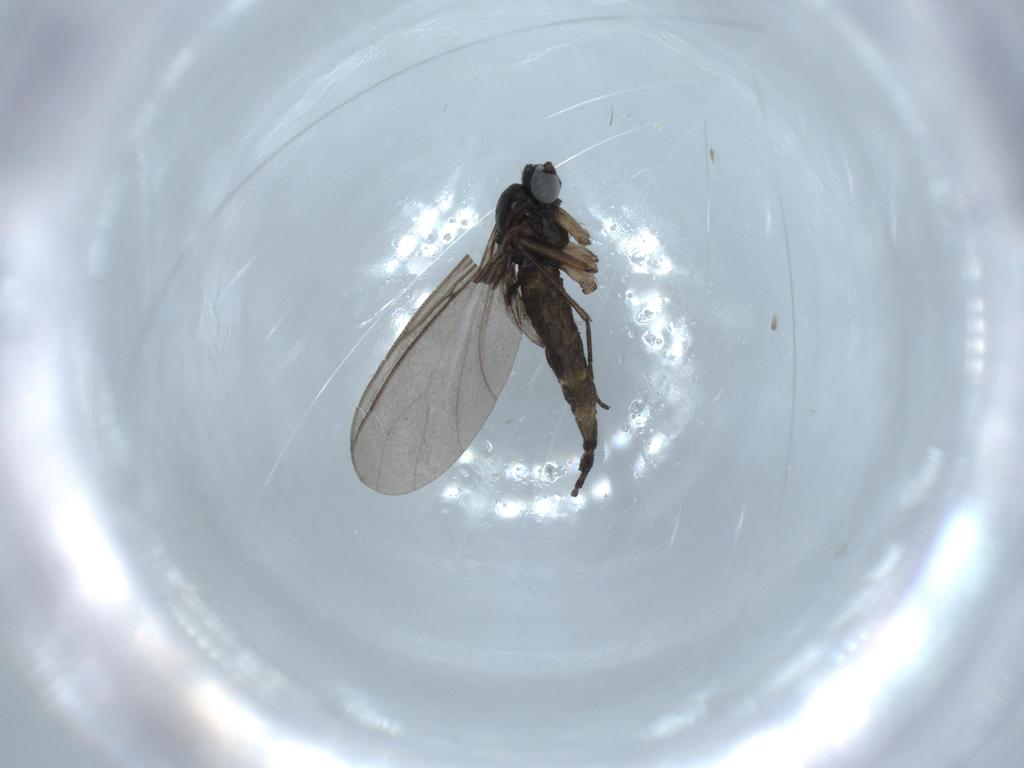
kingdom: Animalia
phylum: Arthropoda
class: Insecta
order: Diptera
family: Sciaridae
